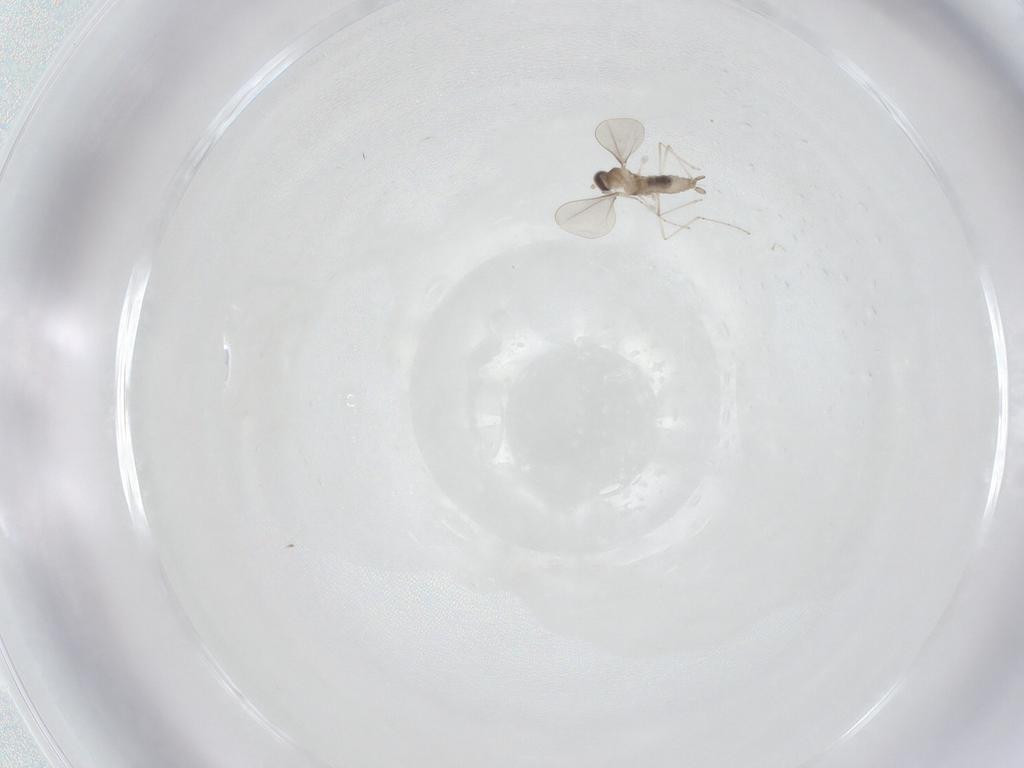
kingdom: Animalia
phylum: Arthropoda
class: Insecta
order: Diptera
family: Cecidomyiidae
